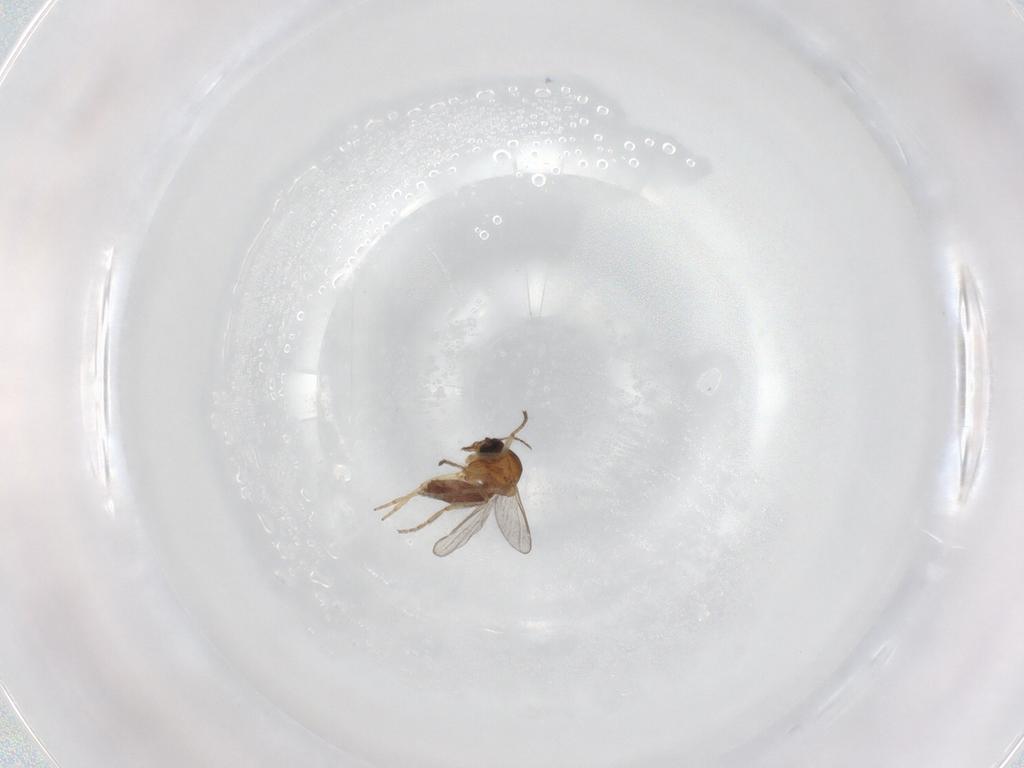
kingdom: Animalia
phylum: Arthropoda
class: Insecta
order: Diptera
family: Ceratopogonidae
